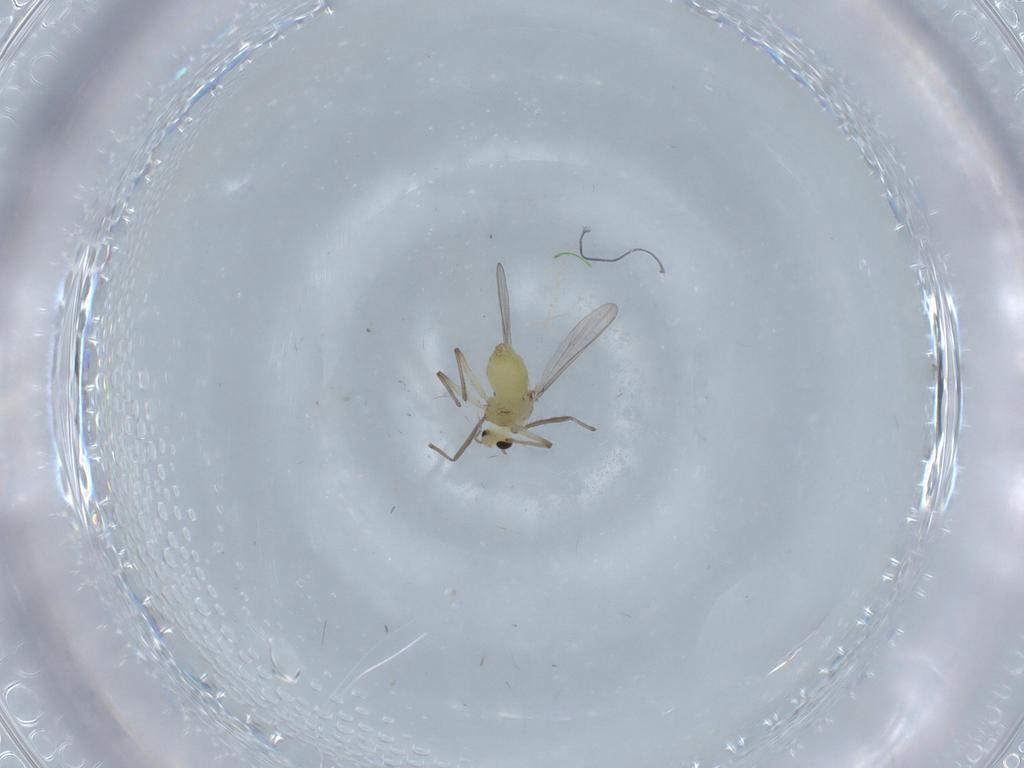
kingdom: Animalia
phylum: Arthropoda
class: Insecta
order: Diptera
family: Chironomidae
